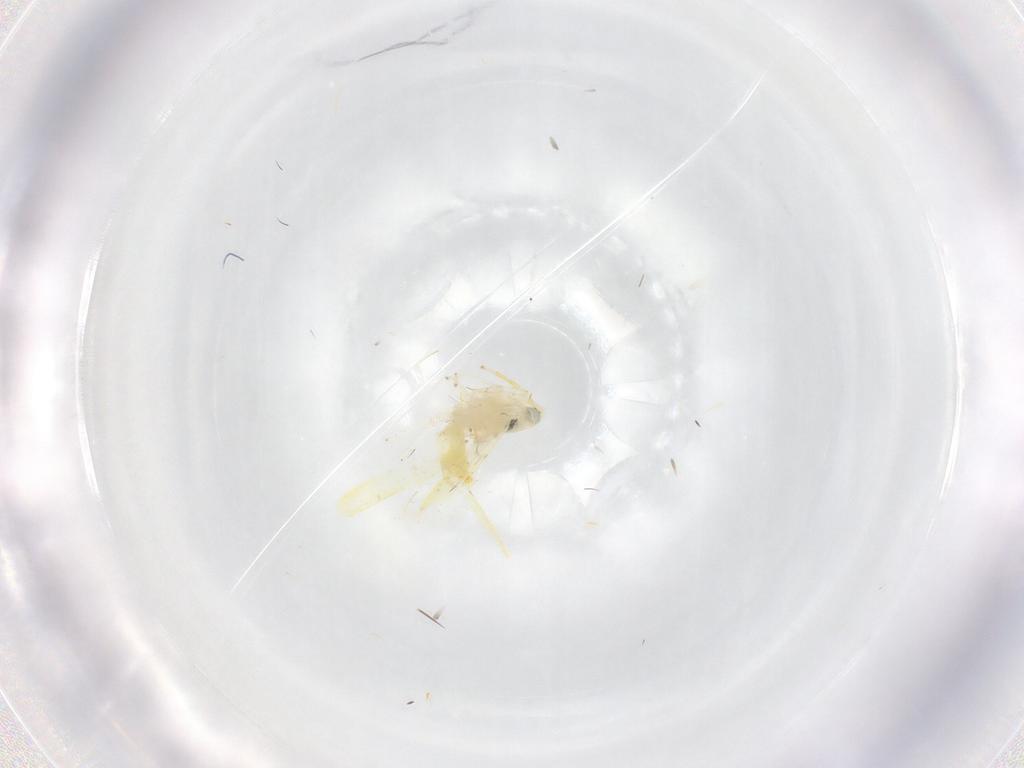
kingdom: Animalia
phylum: Arthropoda
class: Insecta
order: Hemiptera
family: Cicadellidae
